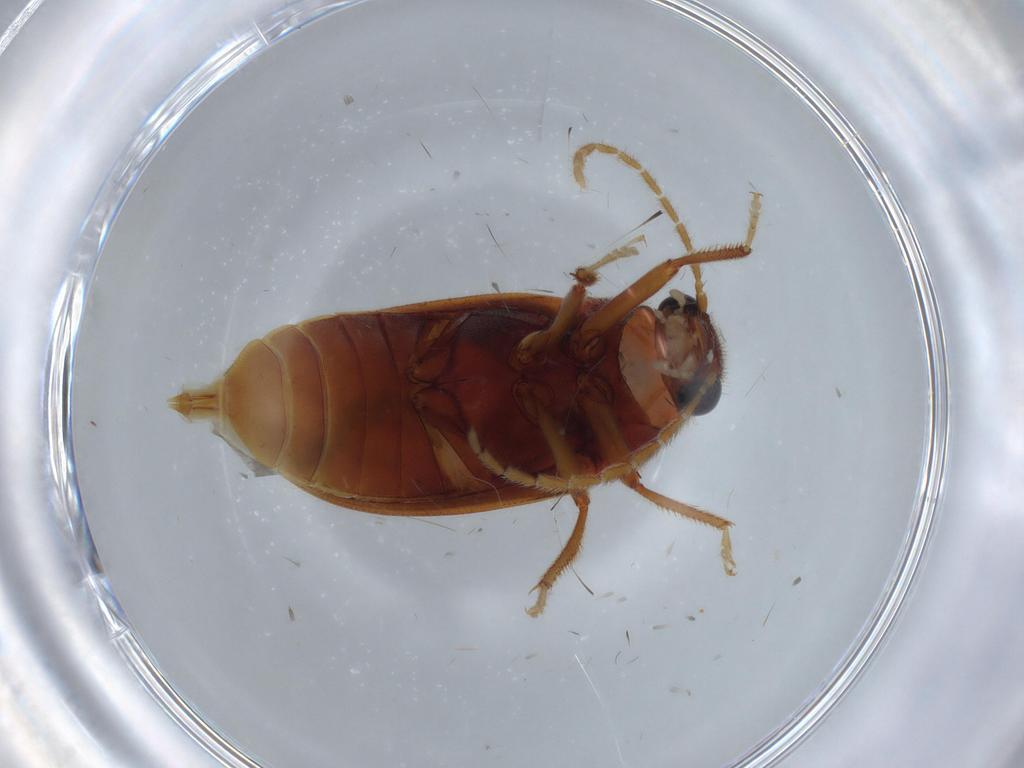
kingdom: Animalia
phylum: Arthropoda
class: Insecta
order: Coleoptera
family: Ptilodactylidae
